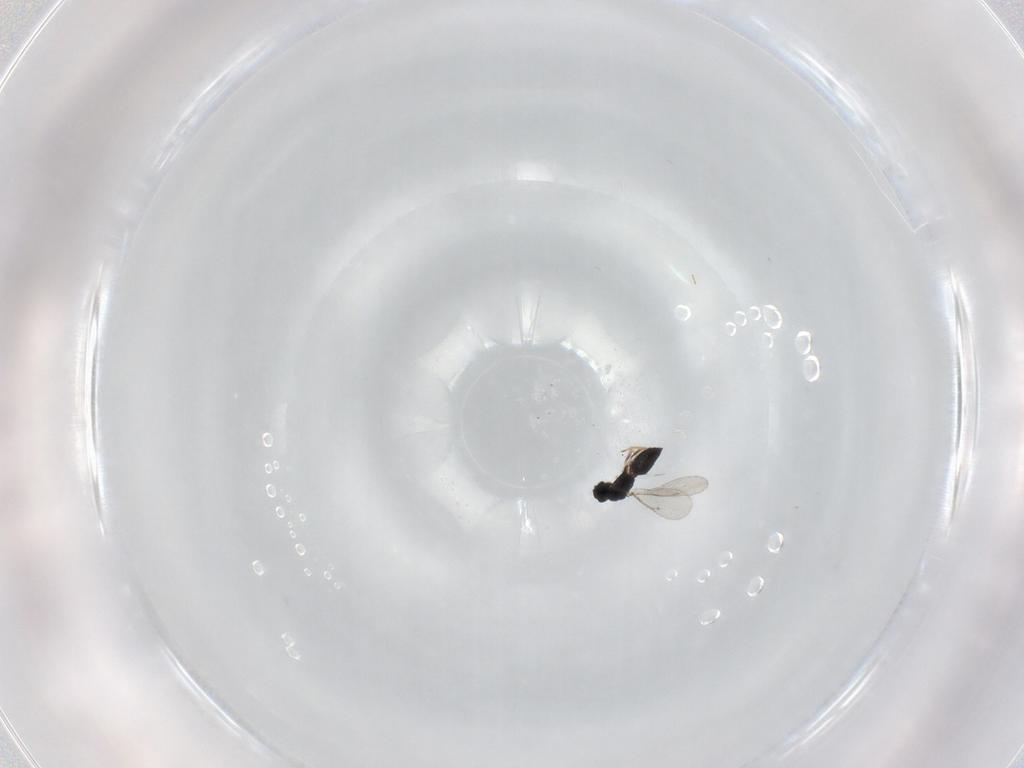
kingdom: Animalia
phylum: Arthropoda
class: Insecta
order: Hymenoptera
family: Eulophidae
